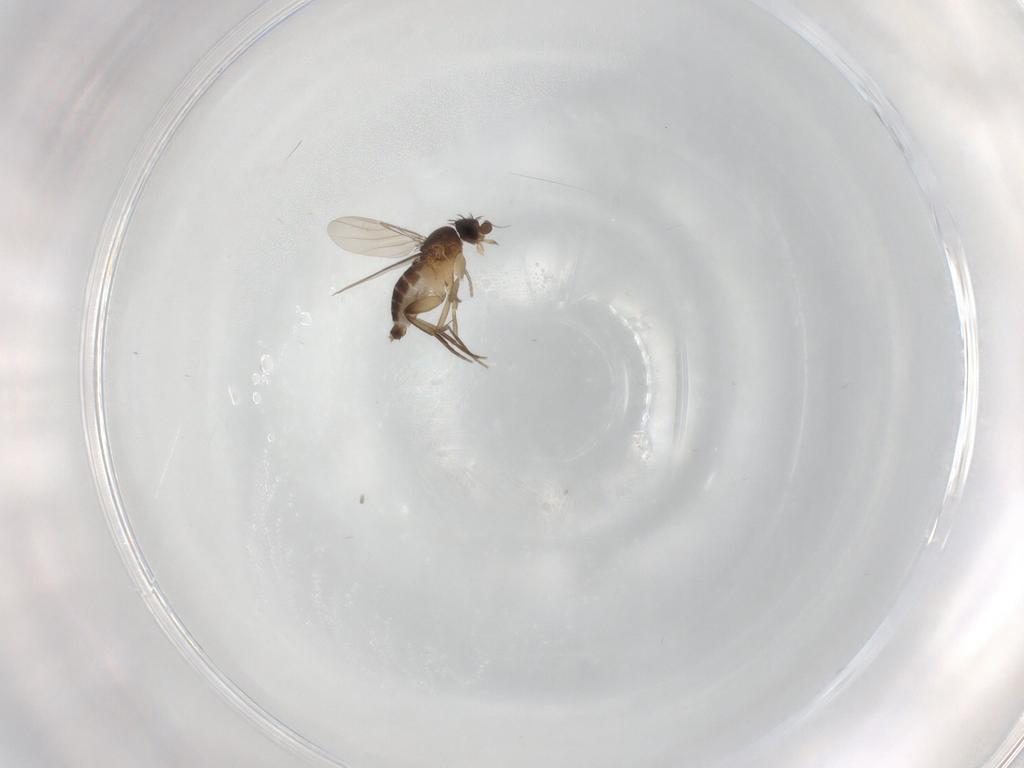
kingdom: Animalia
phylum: Arthropoda
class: Insecta
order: Diptera
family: Phoridae
